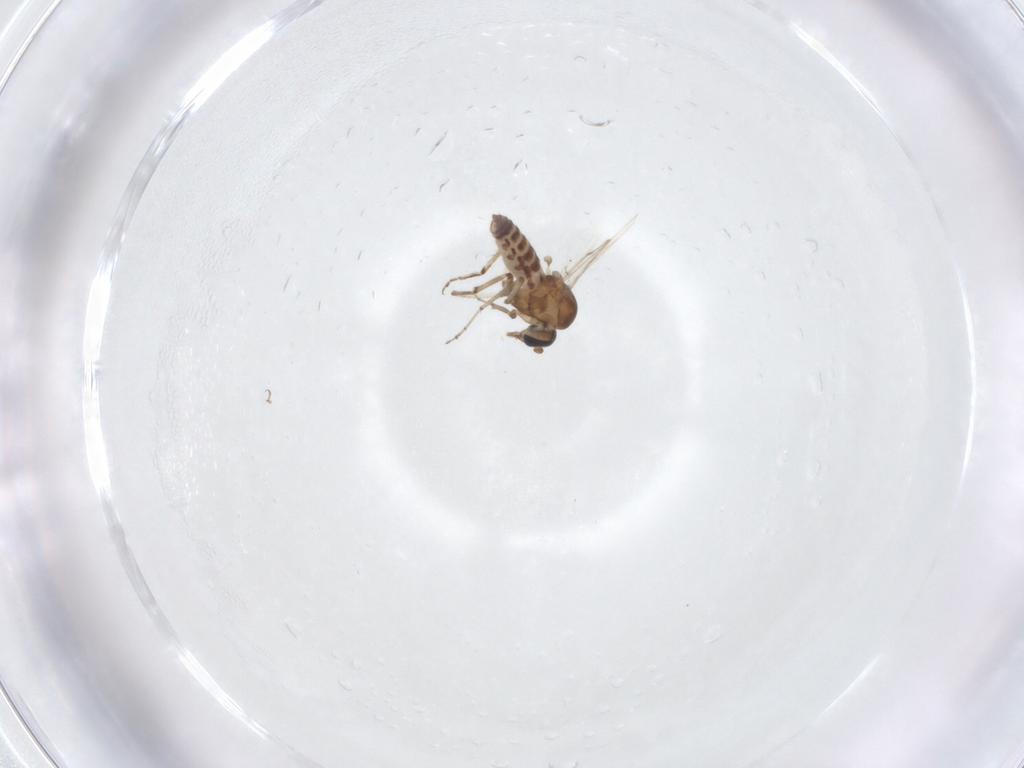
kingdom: Animalia
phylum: Arthropoda
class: Insecta
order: Diptera
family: Ceratopogonidae
